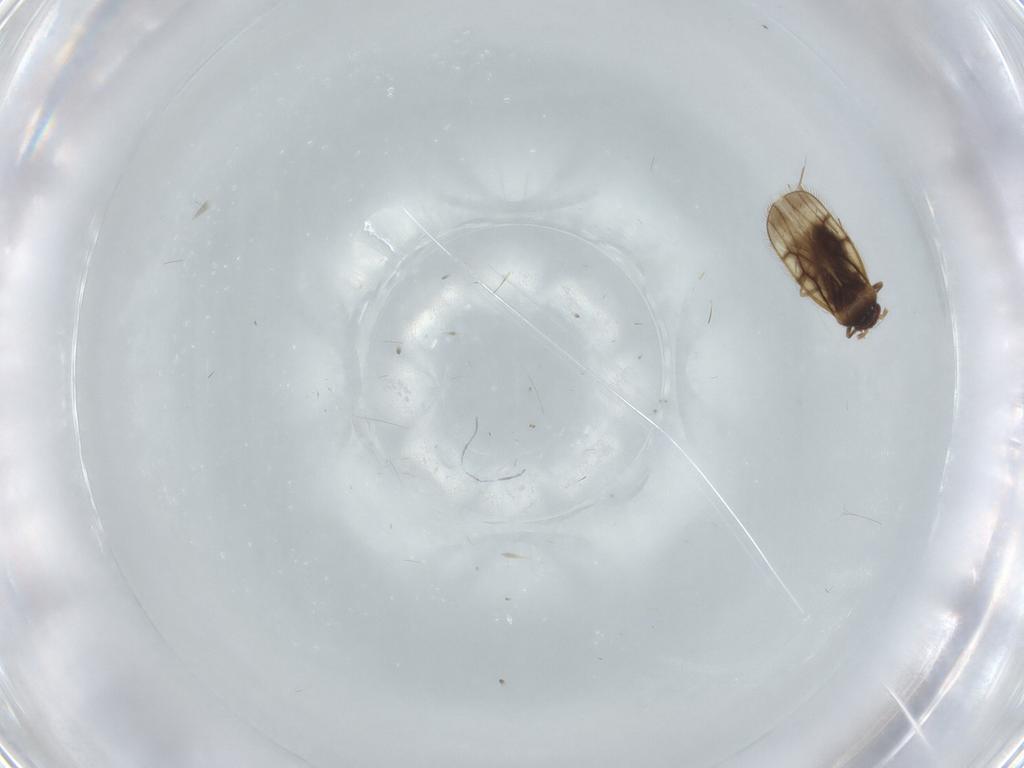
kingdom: Animalia
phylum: Arthropoda
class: Insecta
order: Hemiptera
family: Schizopteridae
